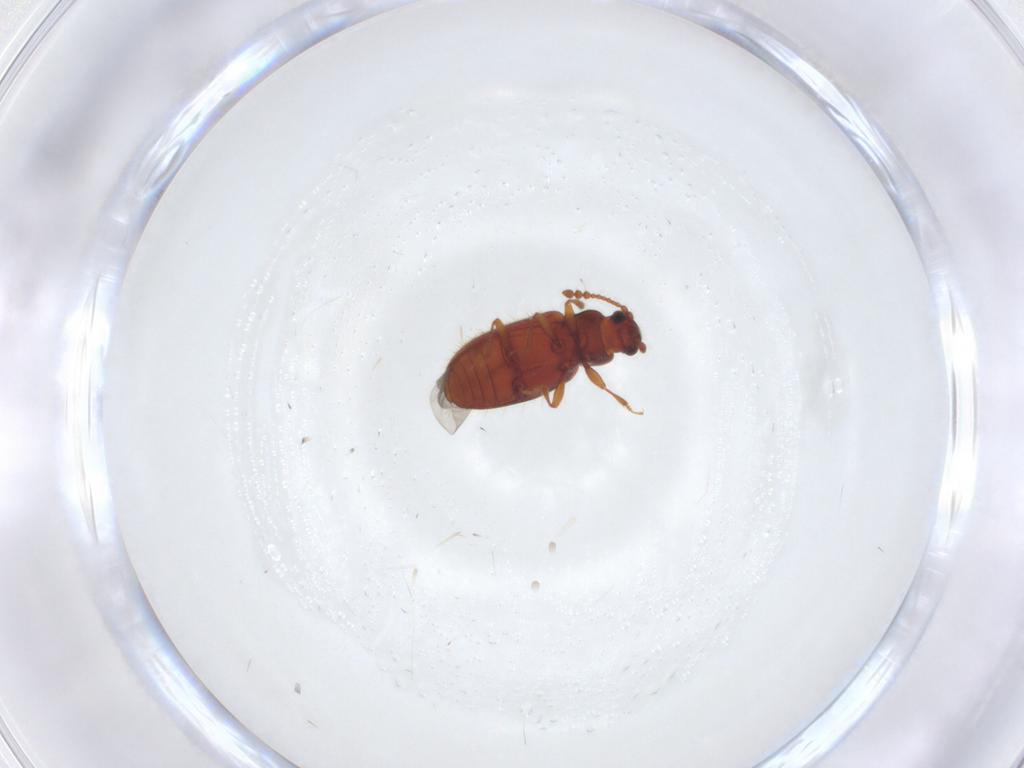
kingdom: Animalia
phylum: Arthropoda
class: Insecta
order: Coleoptera
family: Cryptophagidae
